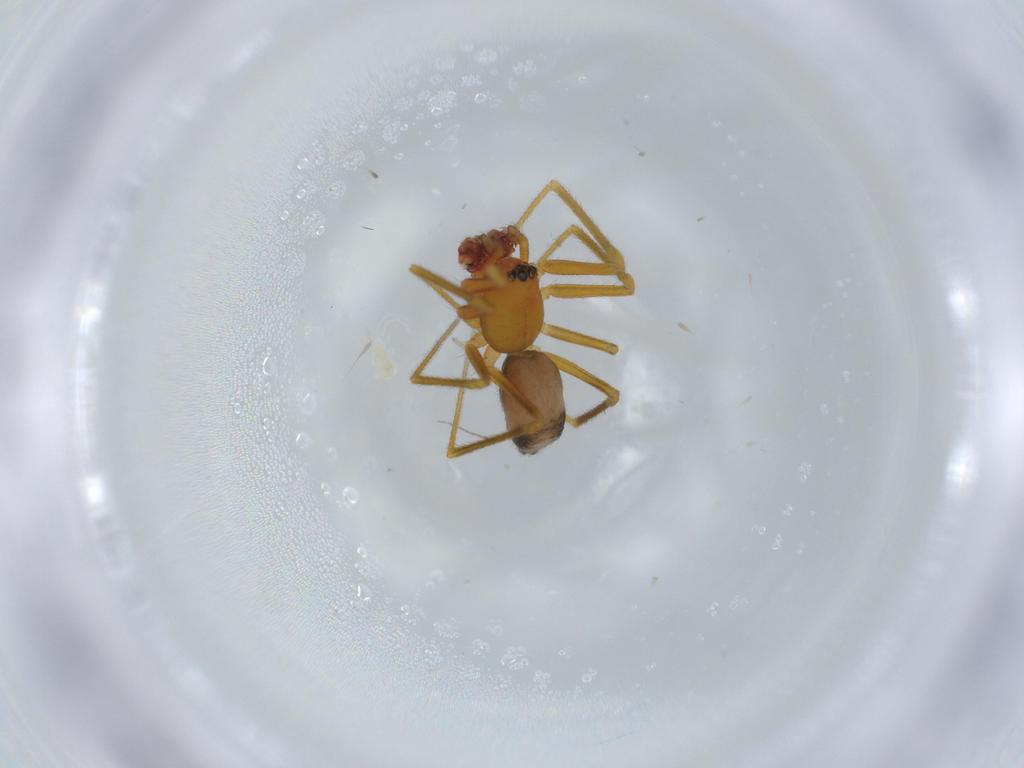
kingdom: Animalia
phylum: Arthropoda
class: Arachnida
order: Araneae
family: Linyphiidae
